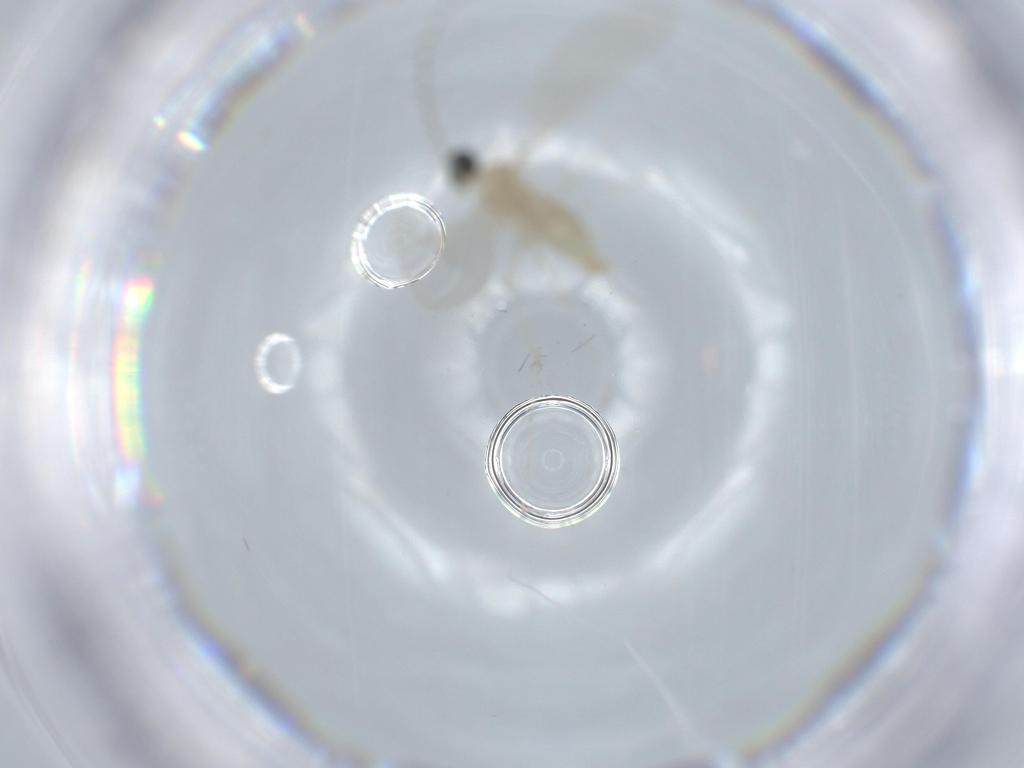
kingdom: Animalia
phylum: Arthropoda
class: Insecta
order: Diptera
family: Cecidomyiidae
